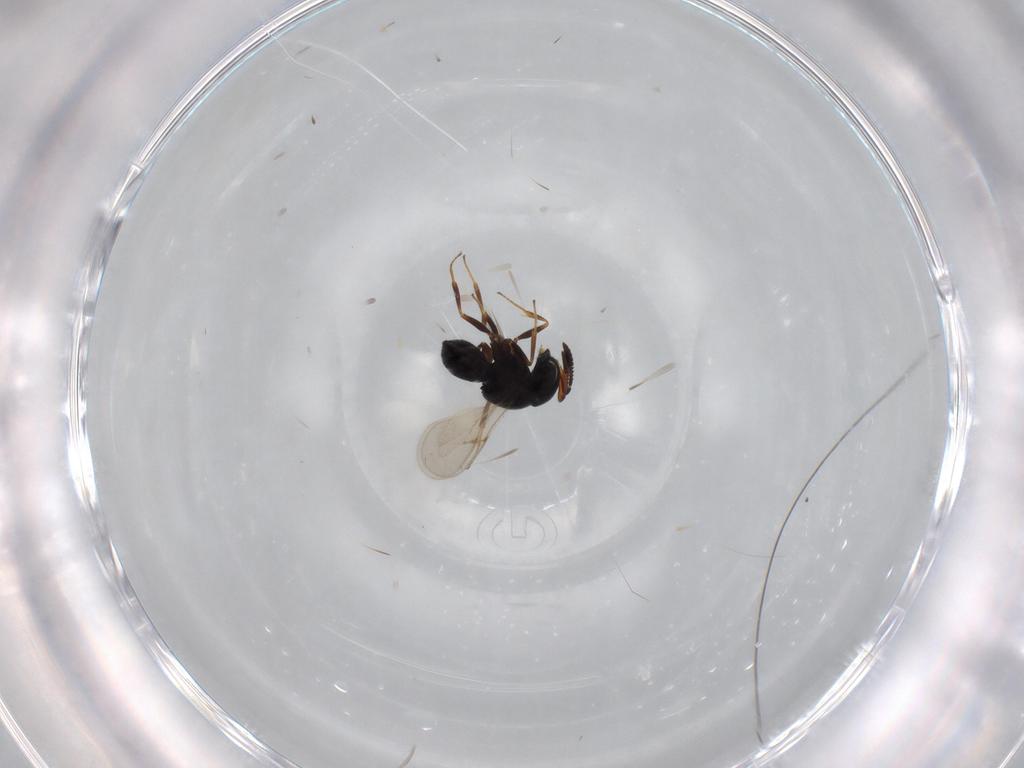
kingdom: Animalia
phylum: Arthropoda
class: Insecta
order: Hymenoptera
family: Scelionidae
